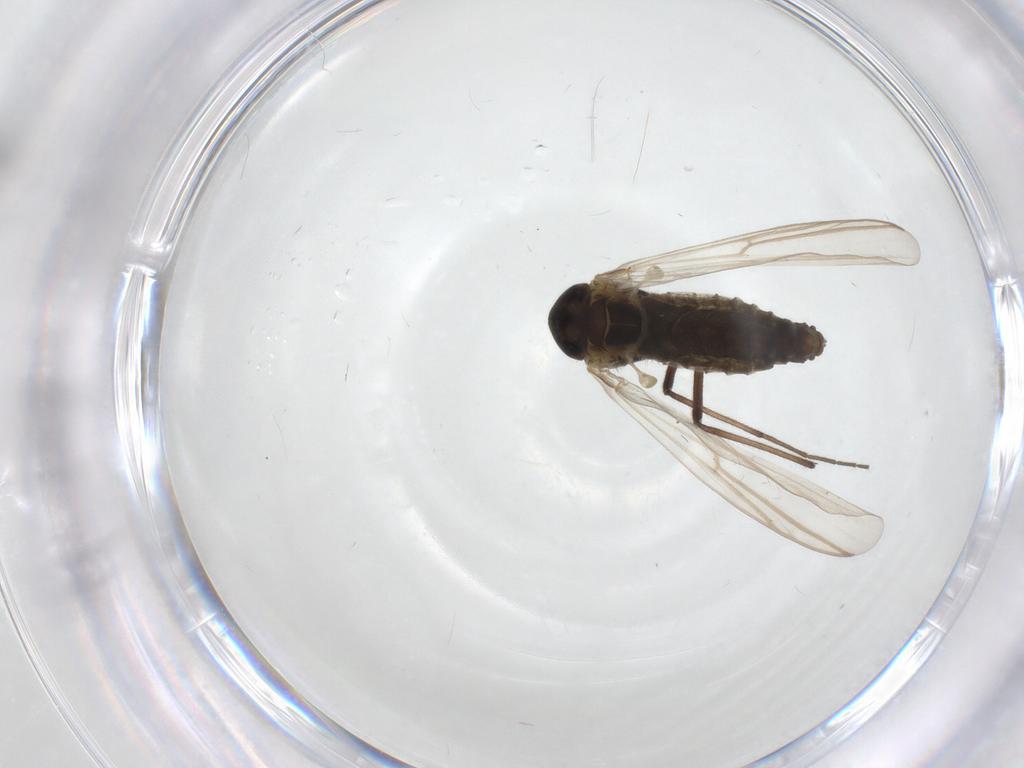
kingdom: Animalia
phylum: Arthropoda
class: Insecta
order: Diptera
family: Chironomidae
